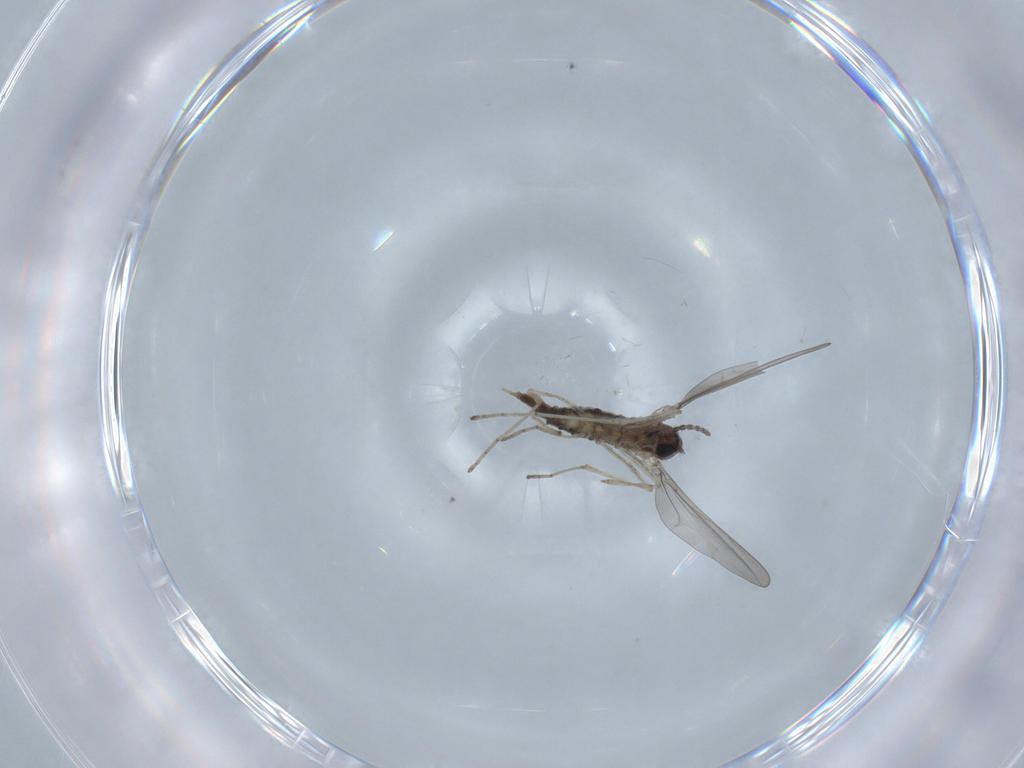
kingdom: Animalia
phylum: Arthropoda
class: Insecta
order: Diptera
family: Cecidomyiidae
